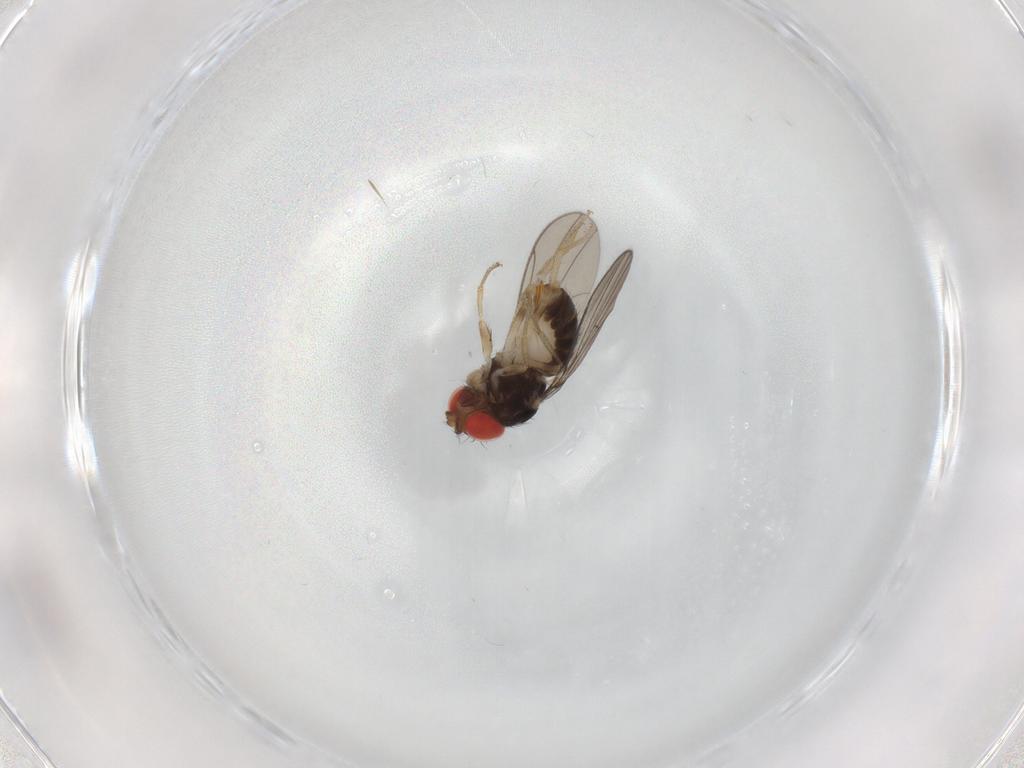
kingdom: Animalia
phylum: Arthropoda
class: Insecta
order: Diptera
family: Drosophilidae
